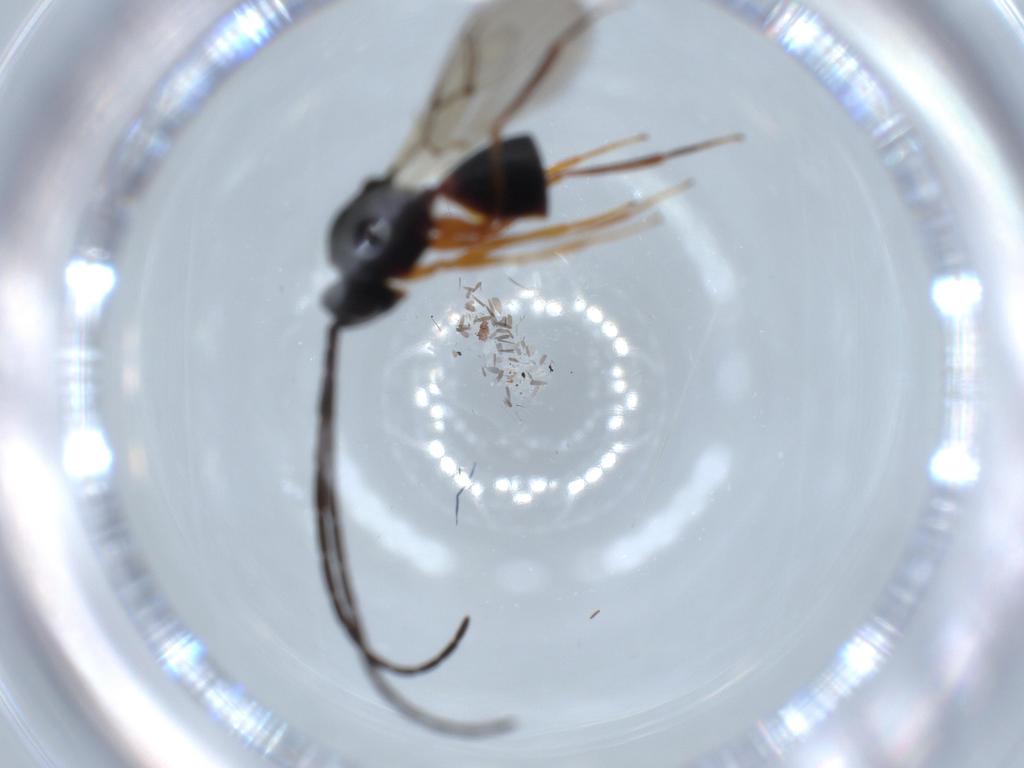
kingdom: Animalia
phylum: Arthropoda
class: Insecta
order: Hymenoptera
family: Figitidae
